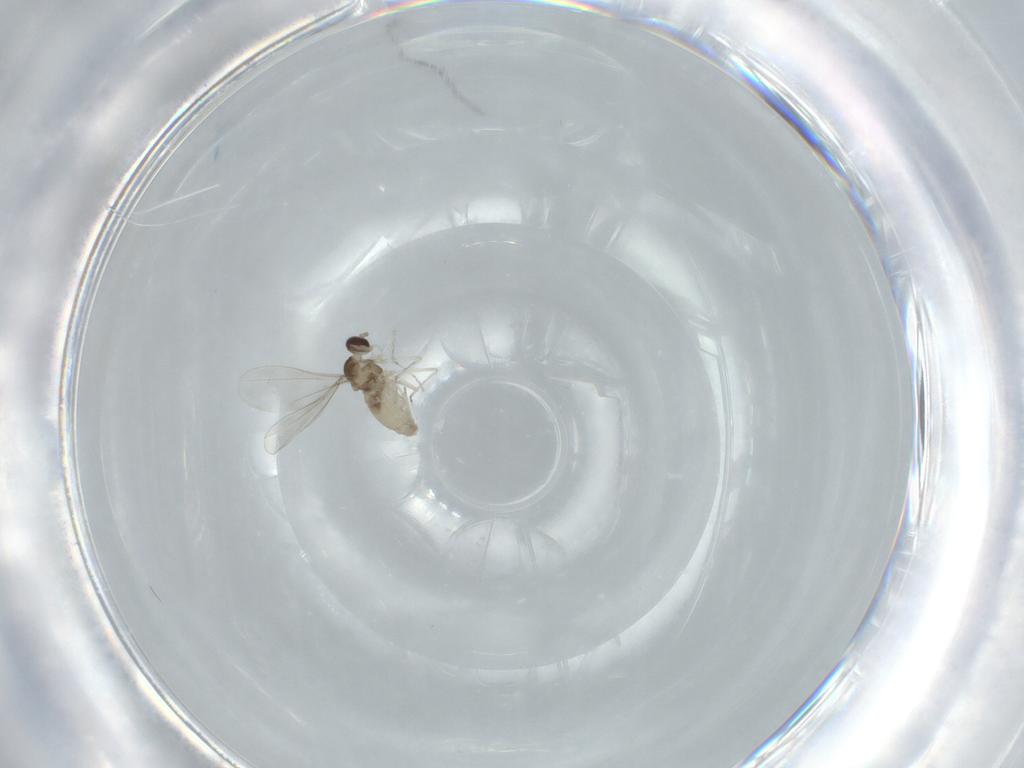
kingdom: Animalia
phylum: Arthropoda
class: Insecta
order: Diptera
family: Cecidomyiidae
